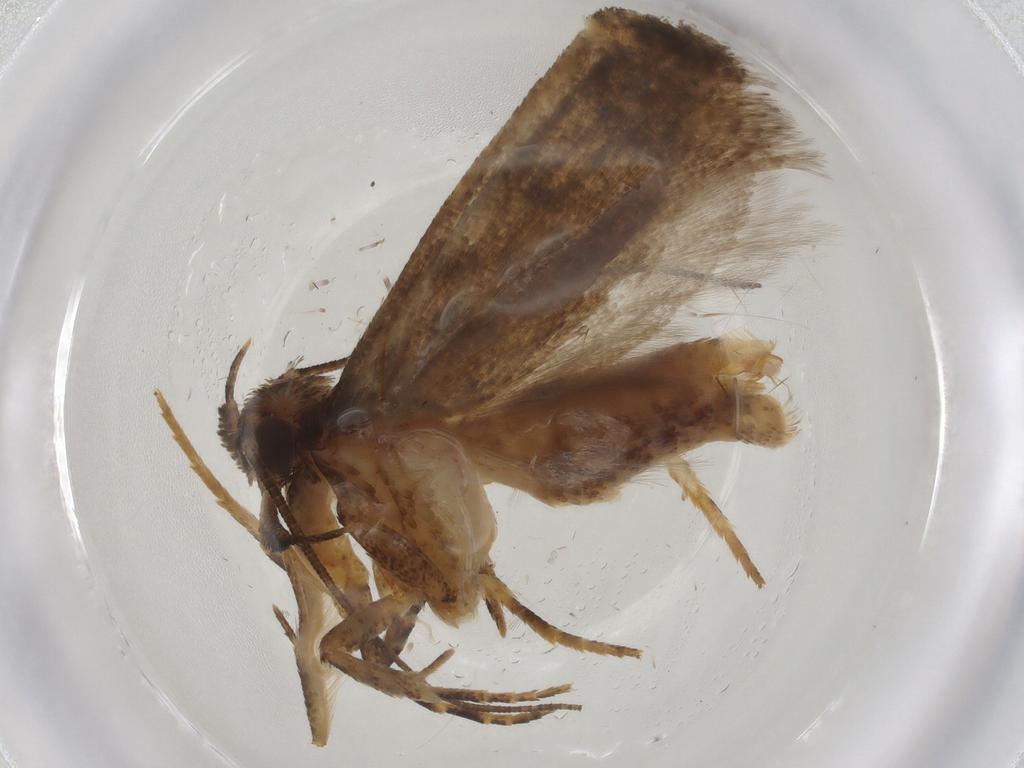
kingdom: Animalia
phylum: Arthropoda
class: Insecta
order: Lepidoptera
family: Gelechiidae
